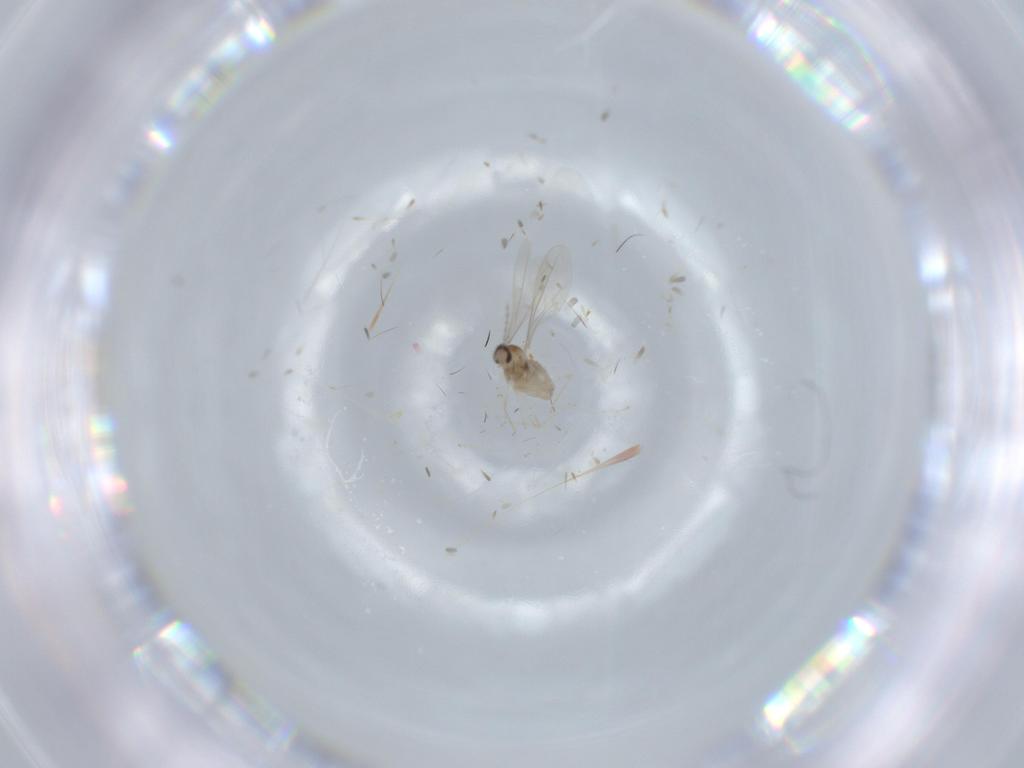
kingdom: Animalia
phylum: Arthropoda
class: Insecta
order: Diptera
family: Cecidomyiidae
